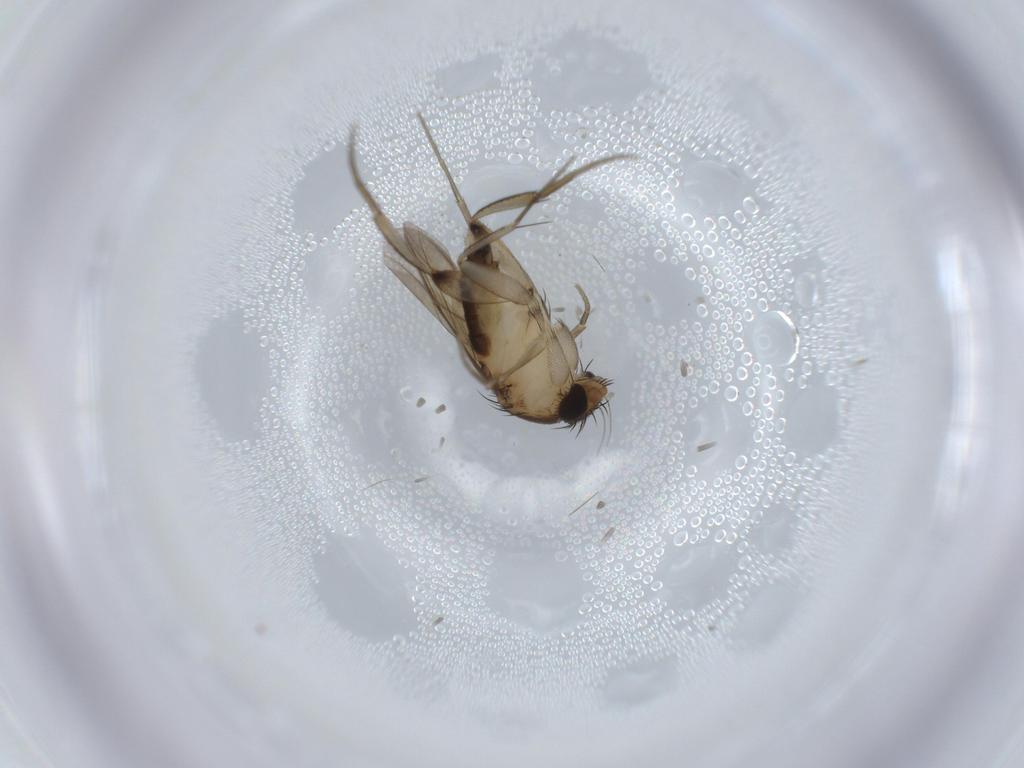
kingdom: Animalia
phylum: Arthropoda
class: Insecta
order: Diptera
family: Phoridae
